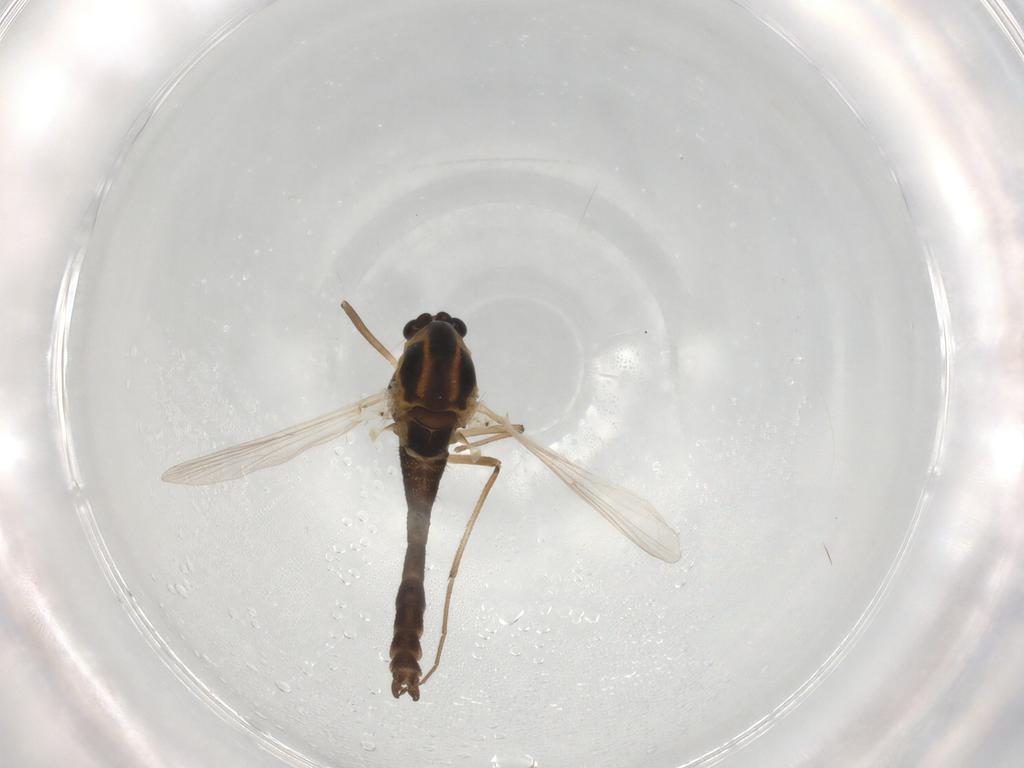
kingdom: Animalia
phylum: Arthropoda
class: Insecta
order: Diptera
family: Chironomidae
